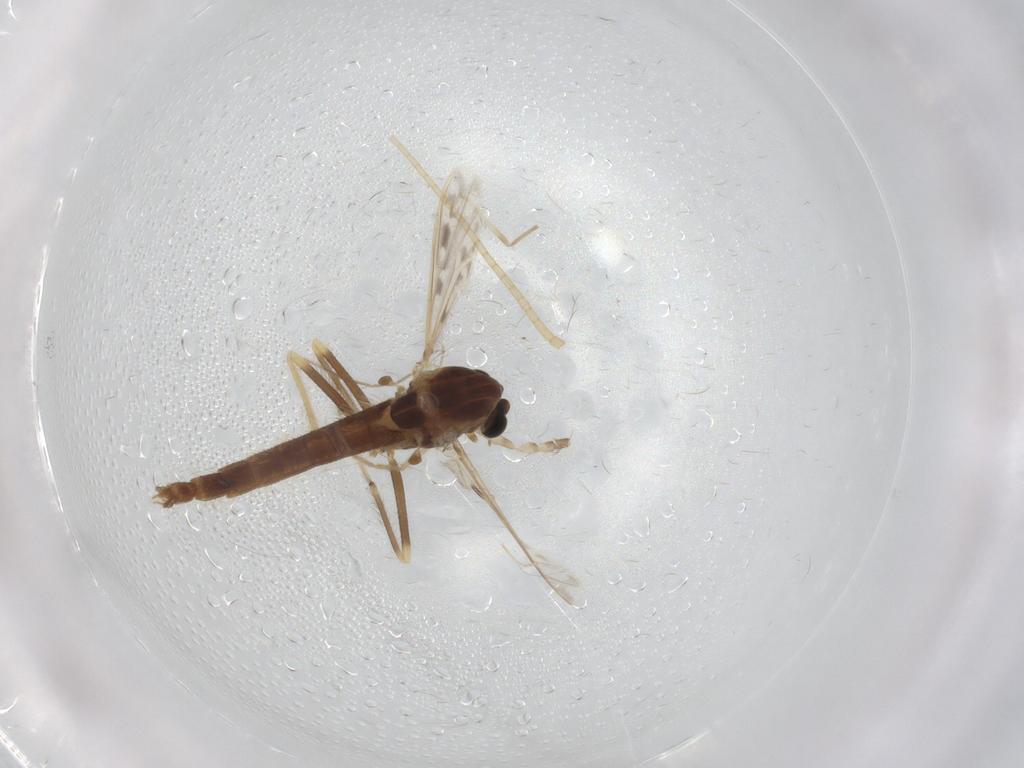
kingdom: Animalia
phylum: Arthropoda
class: Insecta
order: Diptera
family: Chironomidae
